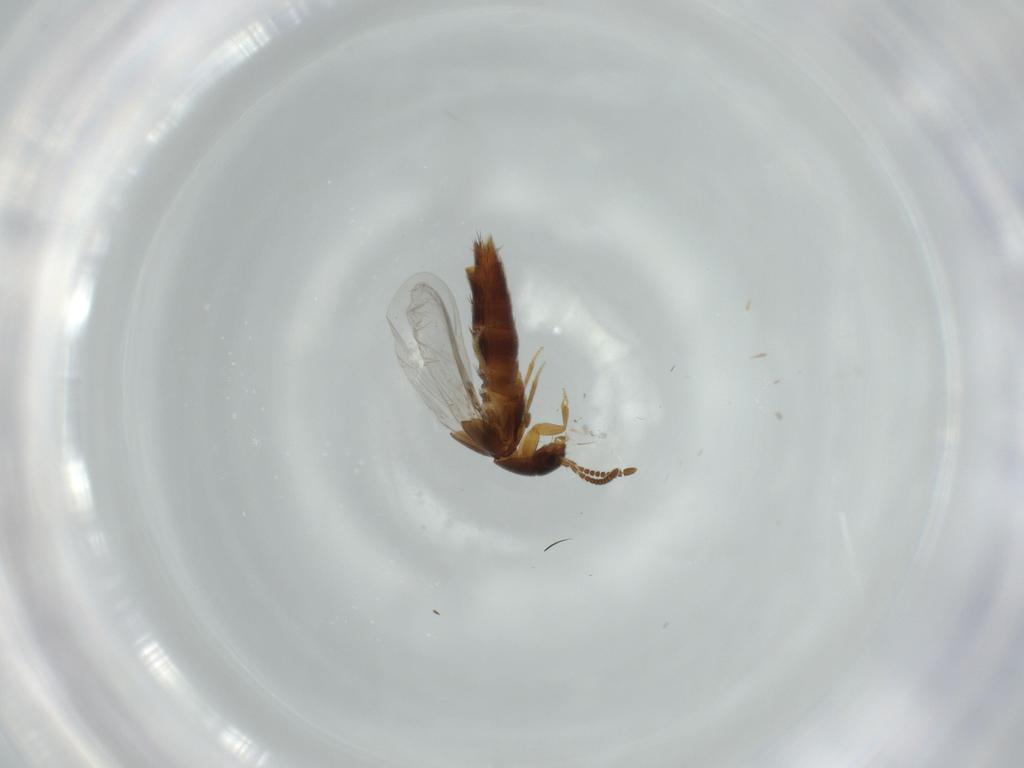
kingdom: Animalia
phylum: Arthropoda
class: Insecta
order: Coleoptera
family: Staphylinidae
